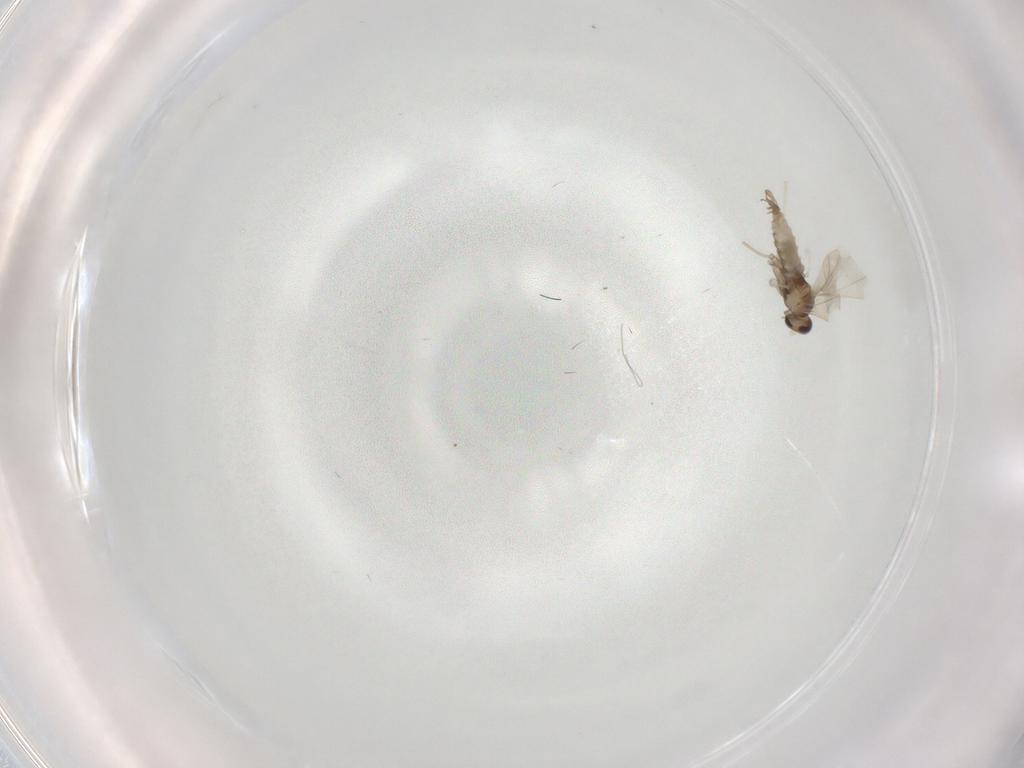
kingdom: Animalia
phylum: Arthropoda
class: Insecta
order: Diptera
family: Cecidomyiidae
